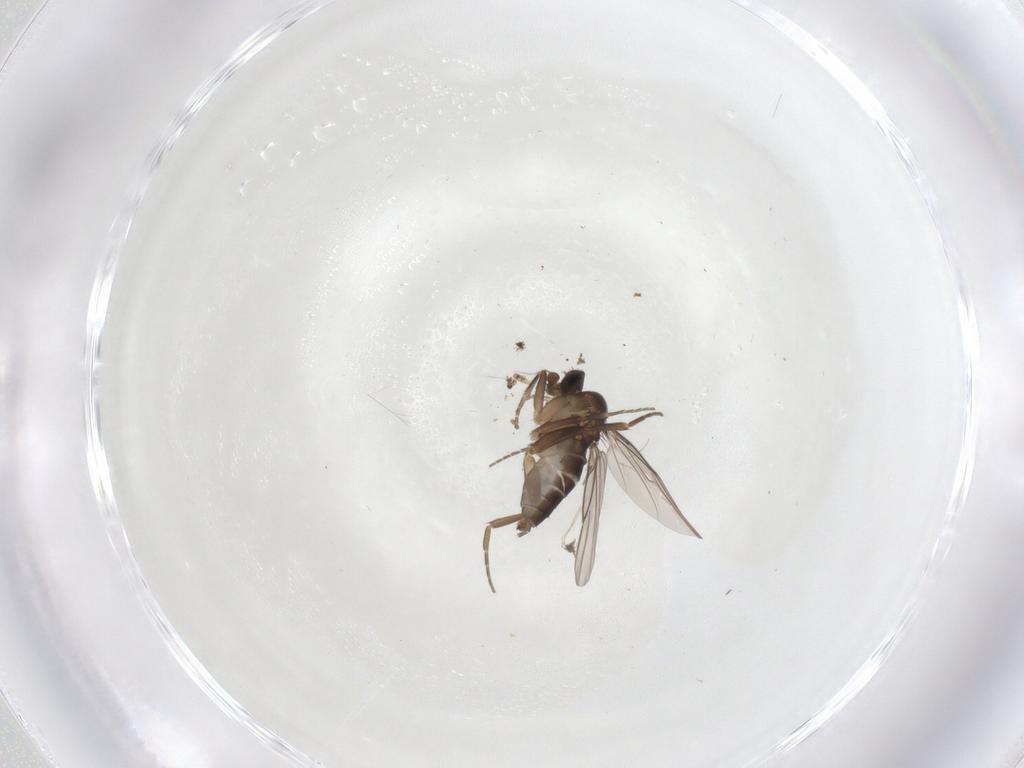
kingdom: Animalia
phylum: Arthropoda
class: Insecta
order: Diptera
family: Phoridae
